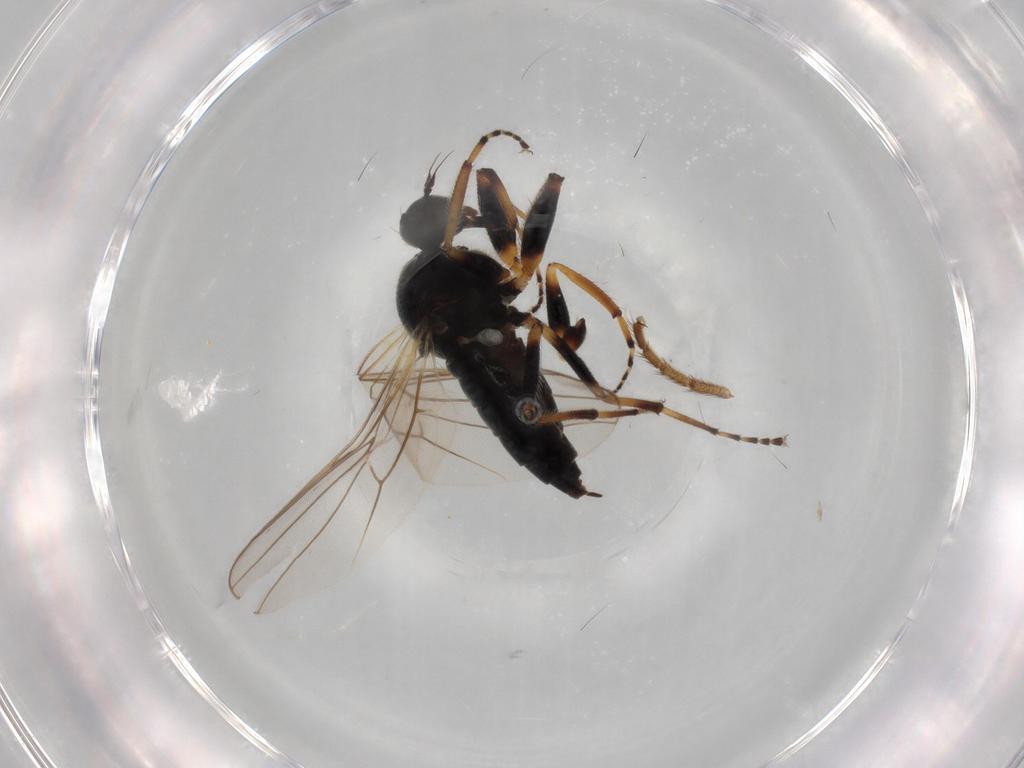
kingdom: Animalia
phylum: Arthropoda
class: Insecta
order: Diptera
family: Hybotidae
